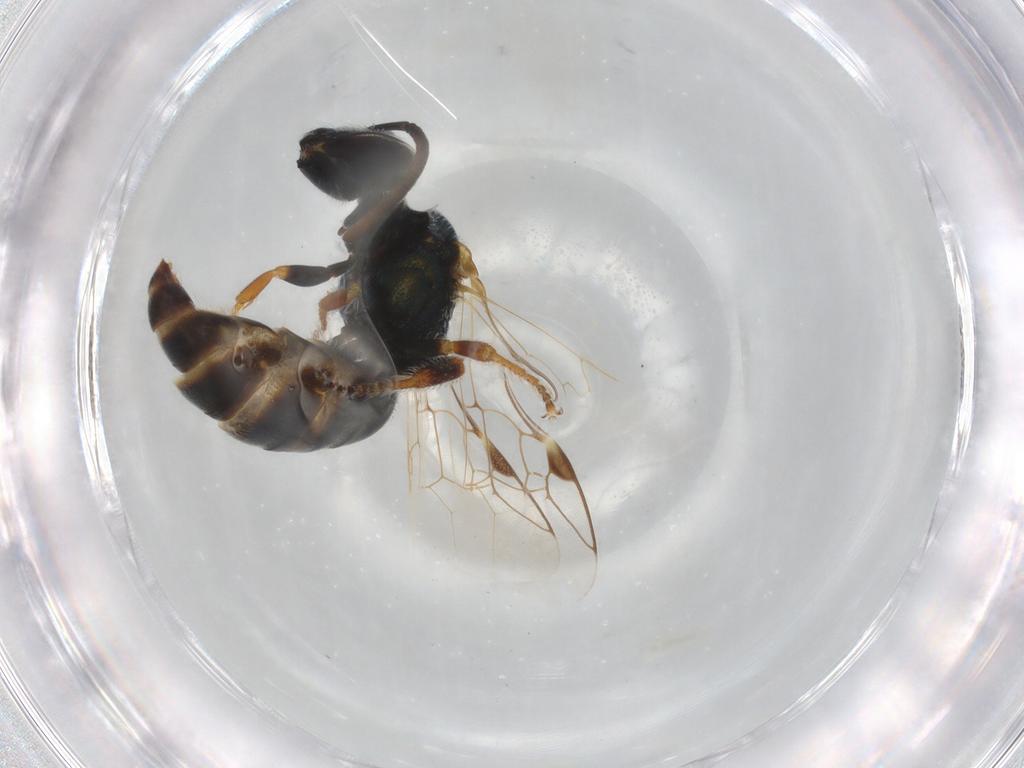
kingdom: Animalia
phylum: Arthropoda
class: Insecta
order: Hymenoptera
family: Halictidae
